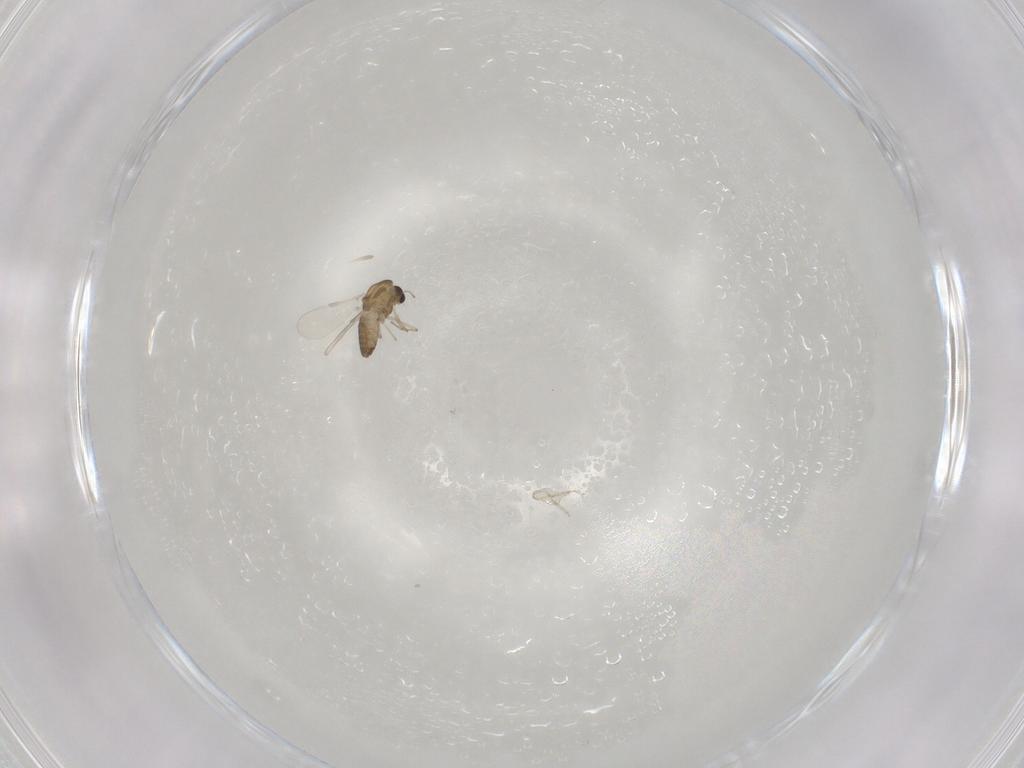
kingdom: Animalia
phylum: Arthropoda
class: Insecta
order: Diptera
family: Chironomidae
